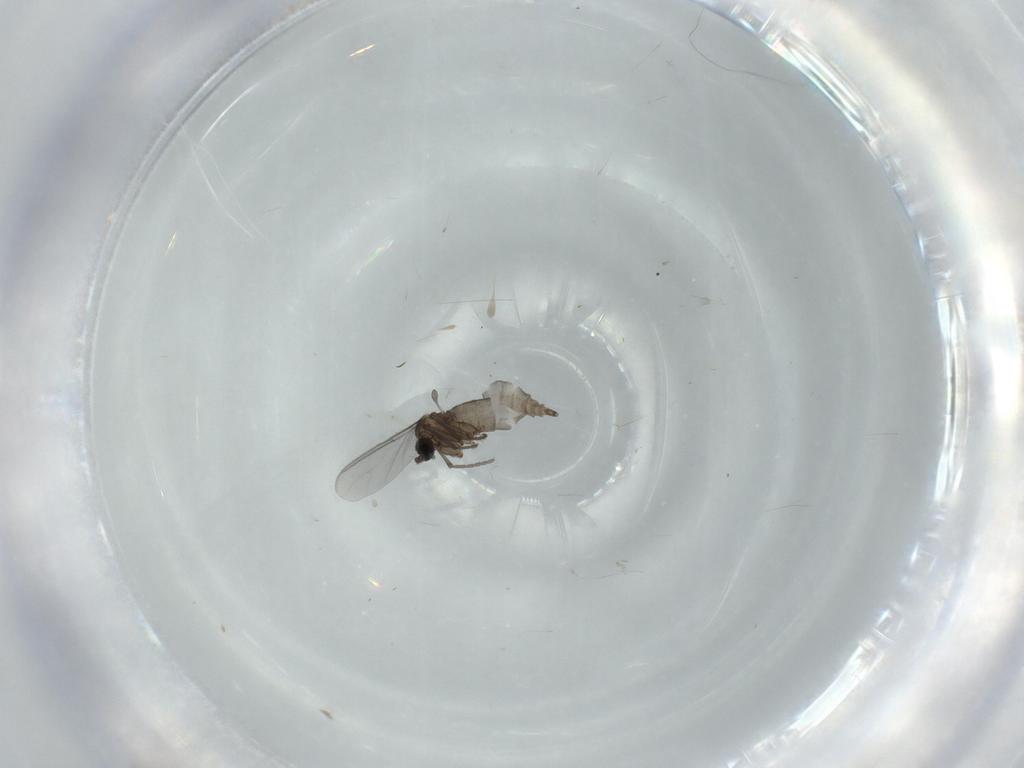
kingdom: Animalia
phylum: Arthropoda
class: Insecta
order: Diptera
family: Sciaridae
